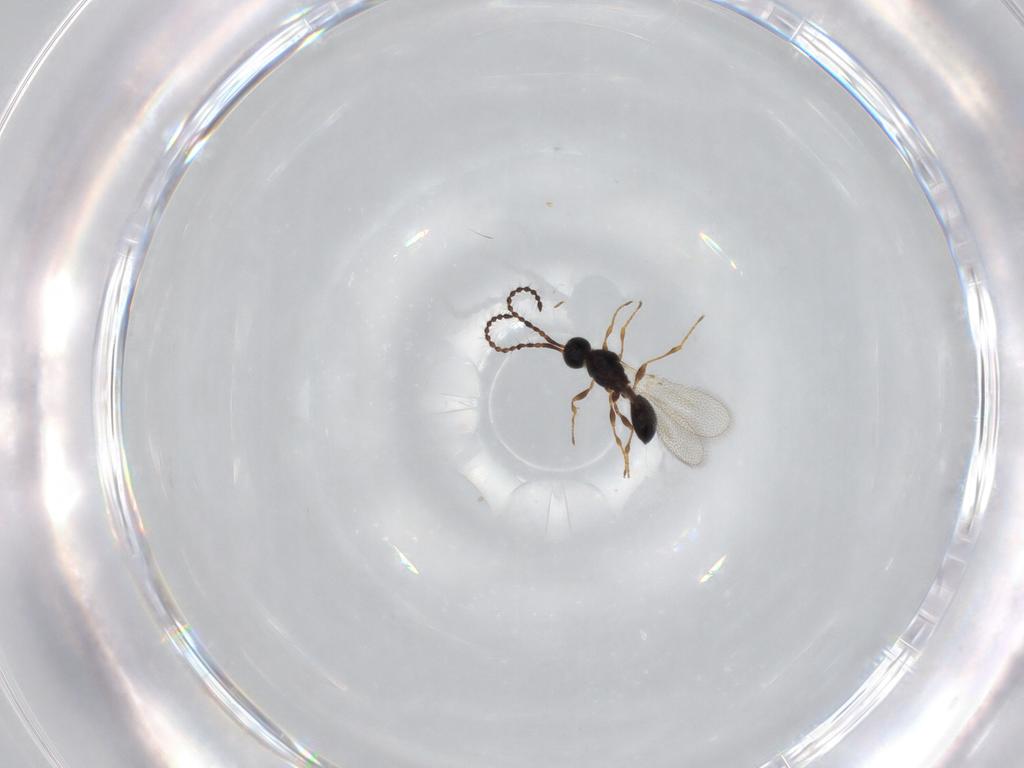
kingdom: Animalia
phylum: Arthropoda
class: Insecta
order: Hymenoptera
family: Diapriidae
